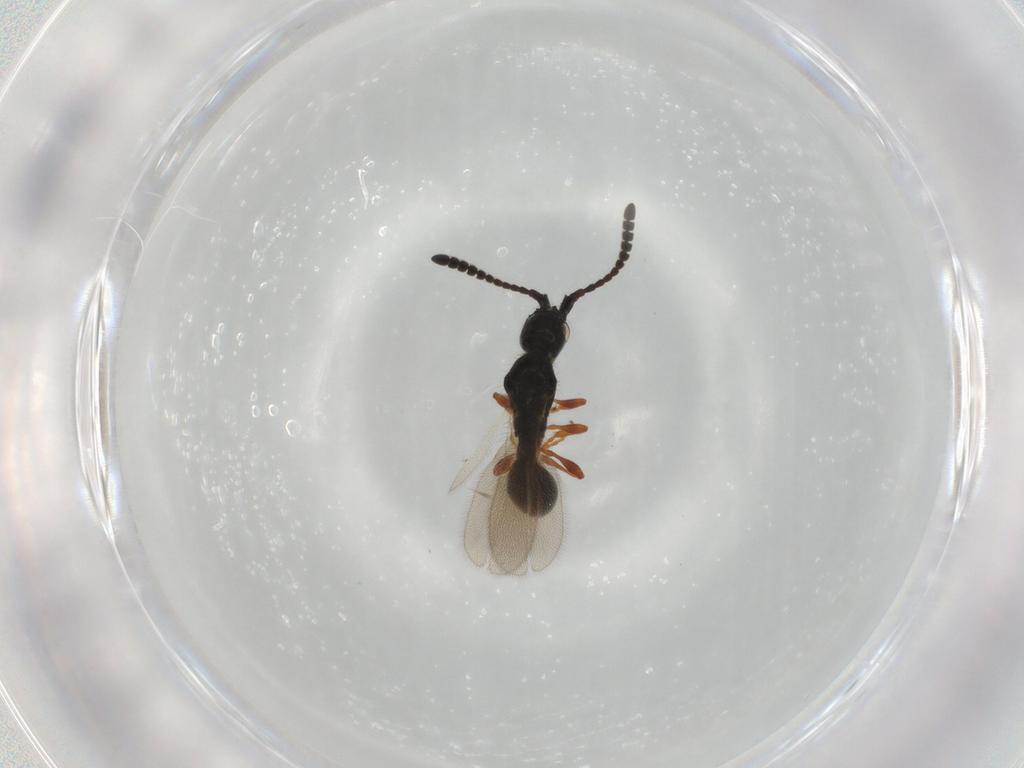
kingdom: Animalia
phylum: Arthropoda
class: Insecta
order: Hymenoptera
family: Diapriidae
